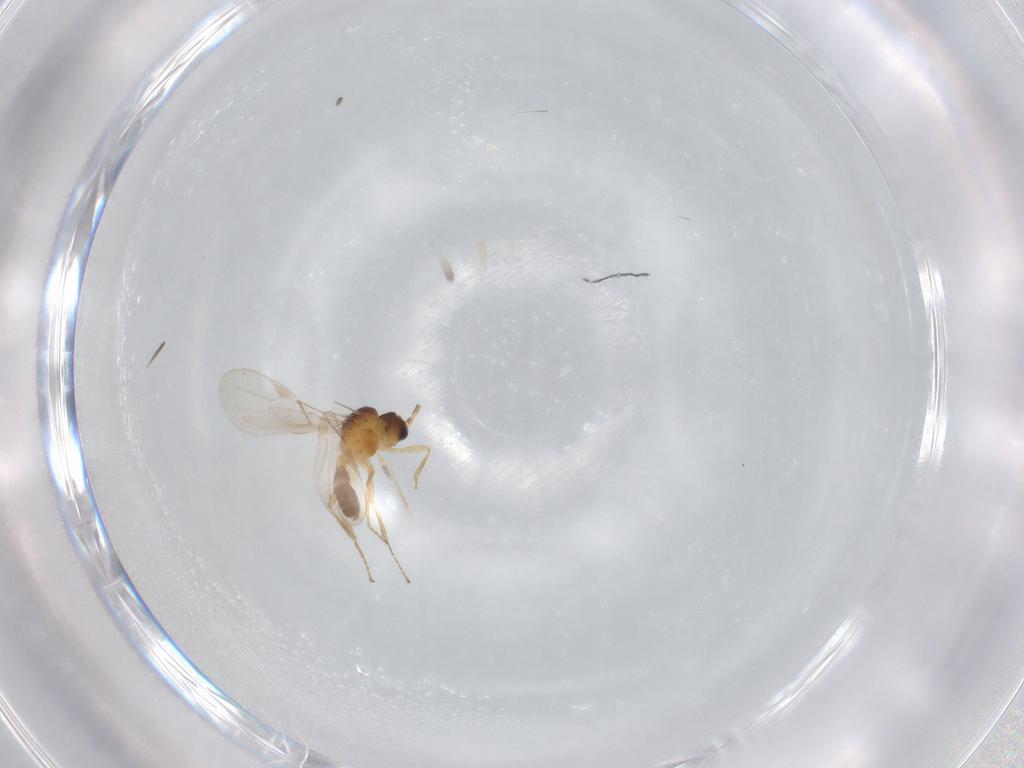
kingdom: Animalia
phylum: Arthropoda
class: Insecta
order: Hymenoptera
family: Braconidae
